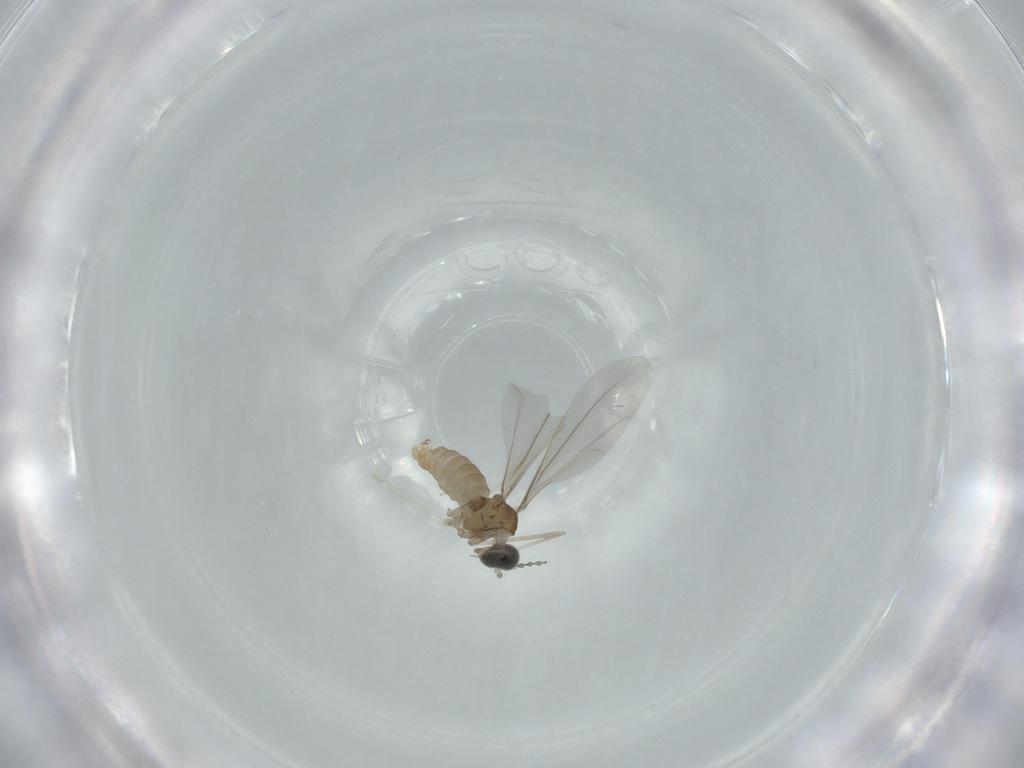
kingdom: Animalia
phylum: Arthropoda
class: Insecta
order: Diptera
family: Cecidomyiidae
